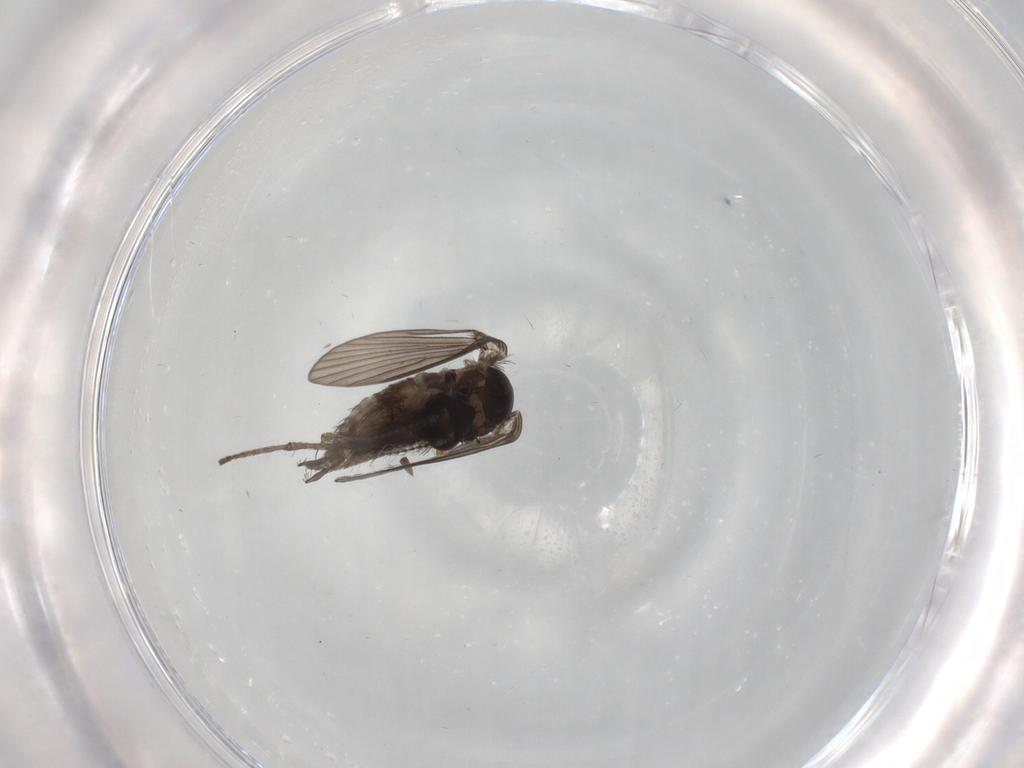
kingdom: Animalia
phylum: Arthropoda
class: Insecta
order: Diptera
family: Psychodidae
